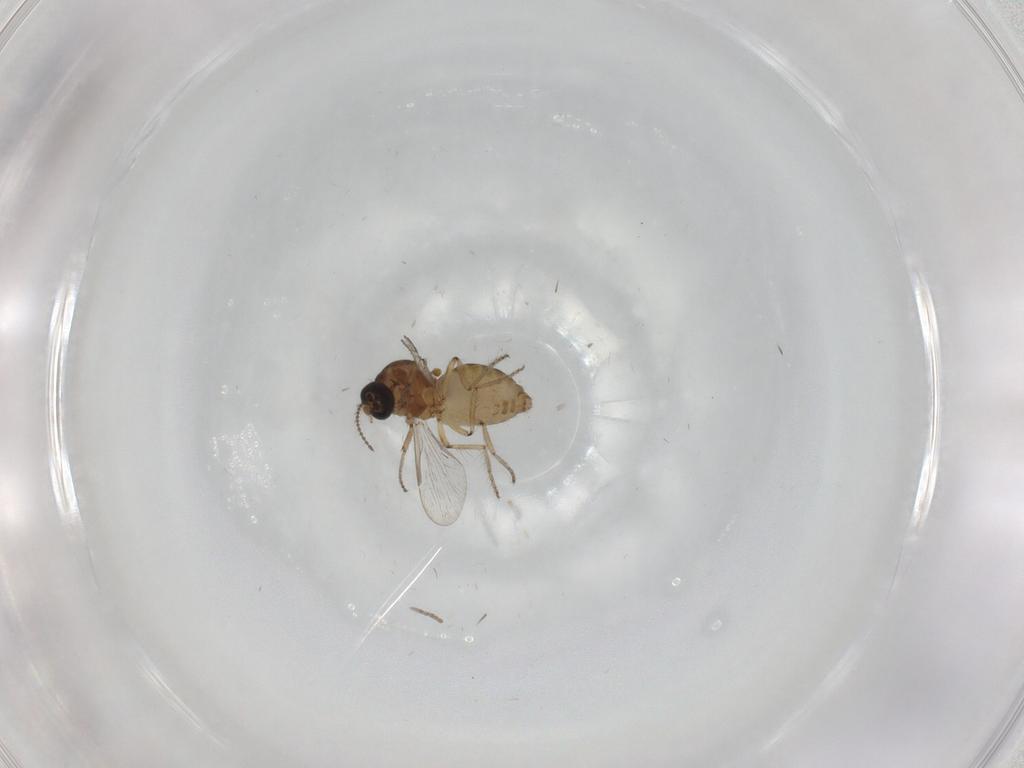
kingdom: Animalia
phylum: Arthropoda
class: Insecta
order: Diptera
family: Ceratopogonidae
